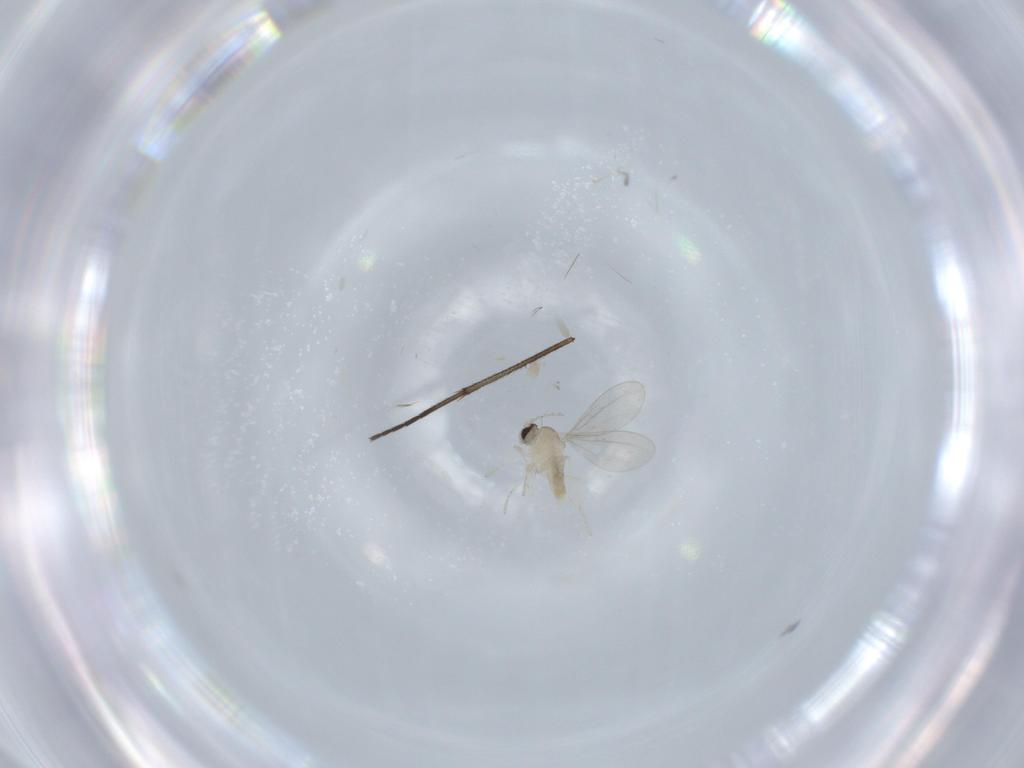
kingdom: Animalia
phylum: Arthropoda
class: Insecta
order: Diptera
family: Cecidomyiidae
